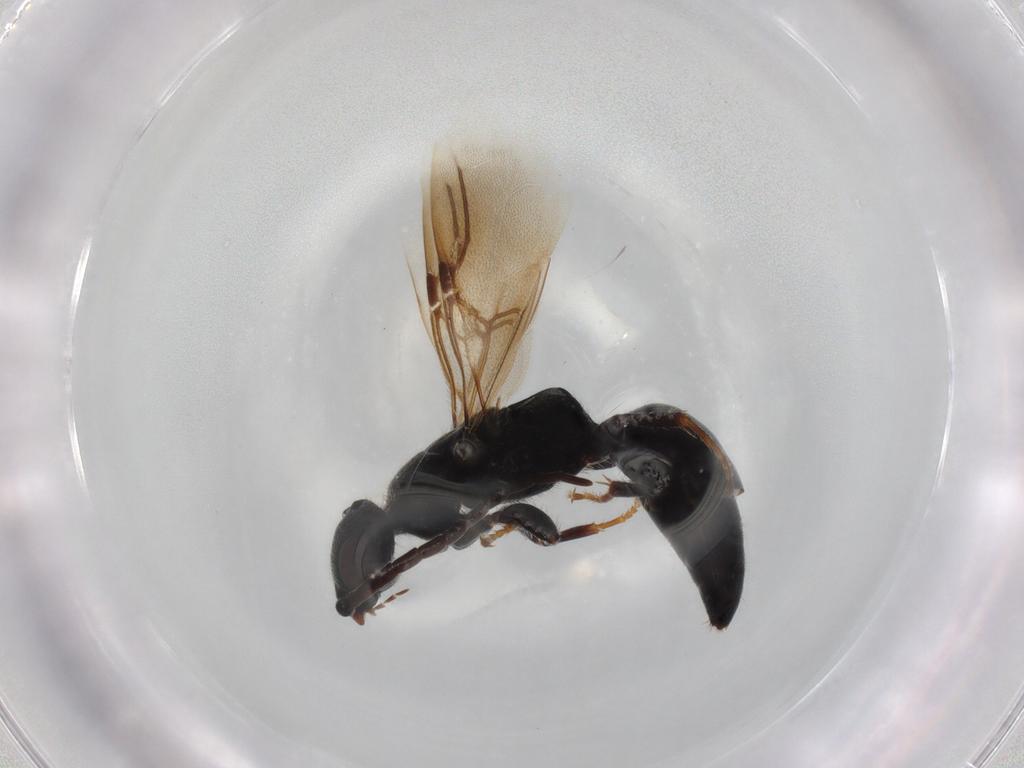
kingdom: Animalia
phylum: Arthropoda
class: Insecta
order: Hymenoptera
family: Bethylidae
